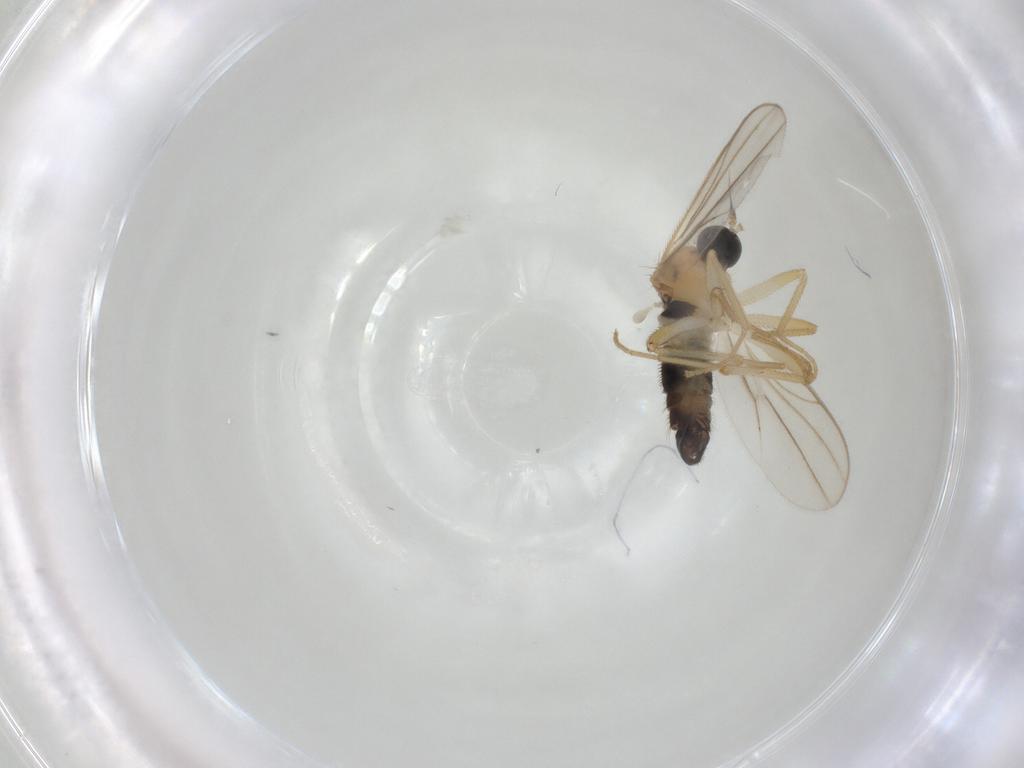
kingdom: Animalia
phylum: Arthropoda
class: Insecta
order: Diptera
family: Hybotidae
